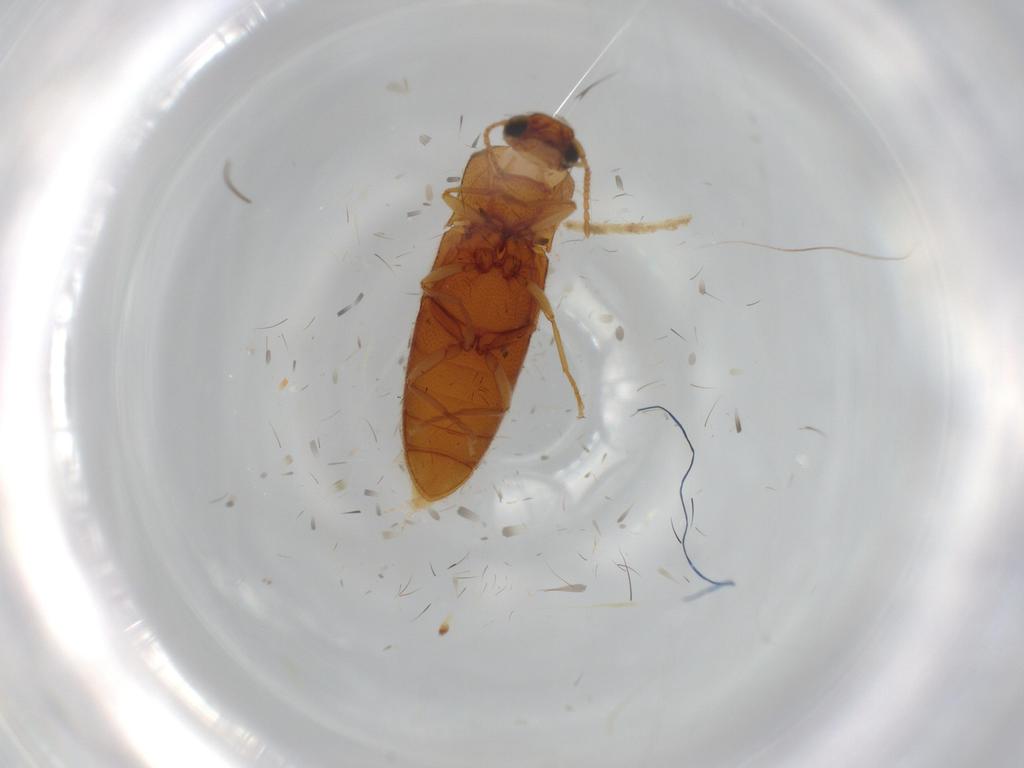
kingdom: Animalia
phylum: Arthropoda
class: Insecta
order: Coleoptera
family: Elateridae
